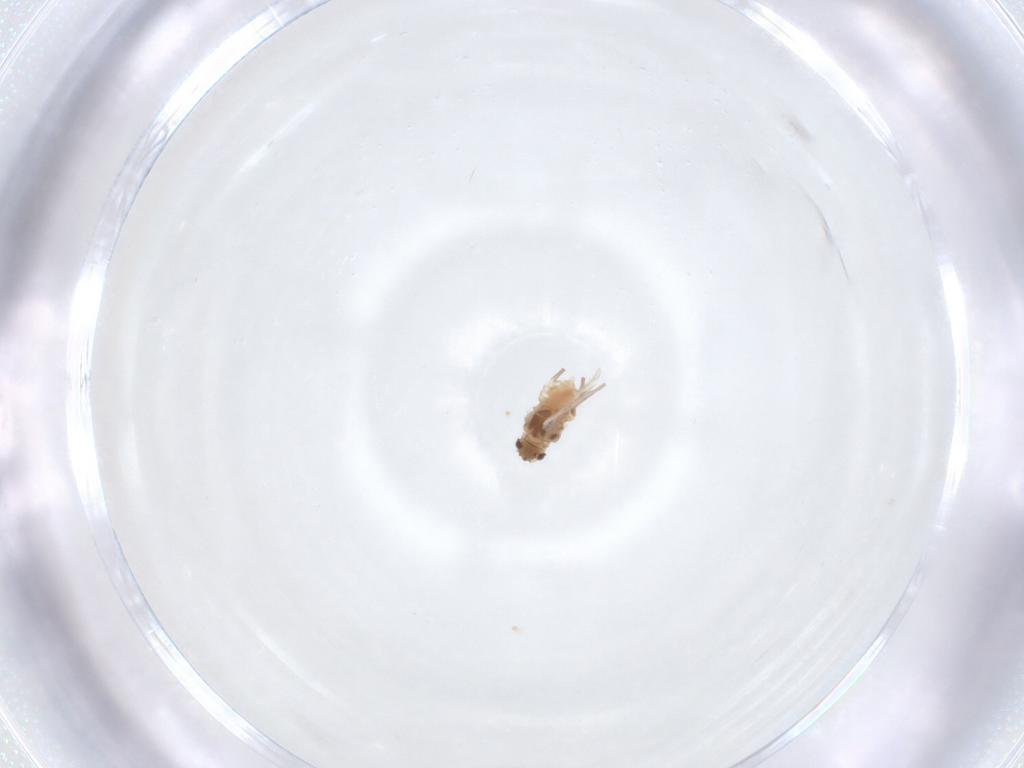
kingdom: Animalia
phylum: Arthropoda
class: Insecta
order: Hemiptera
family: Aphididae
